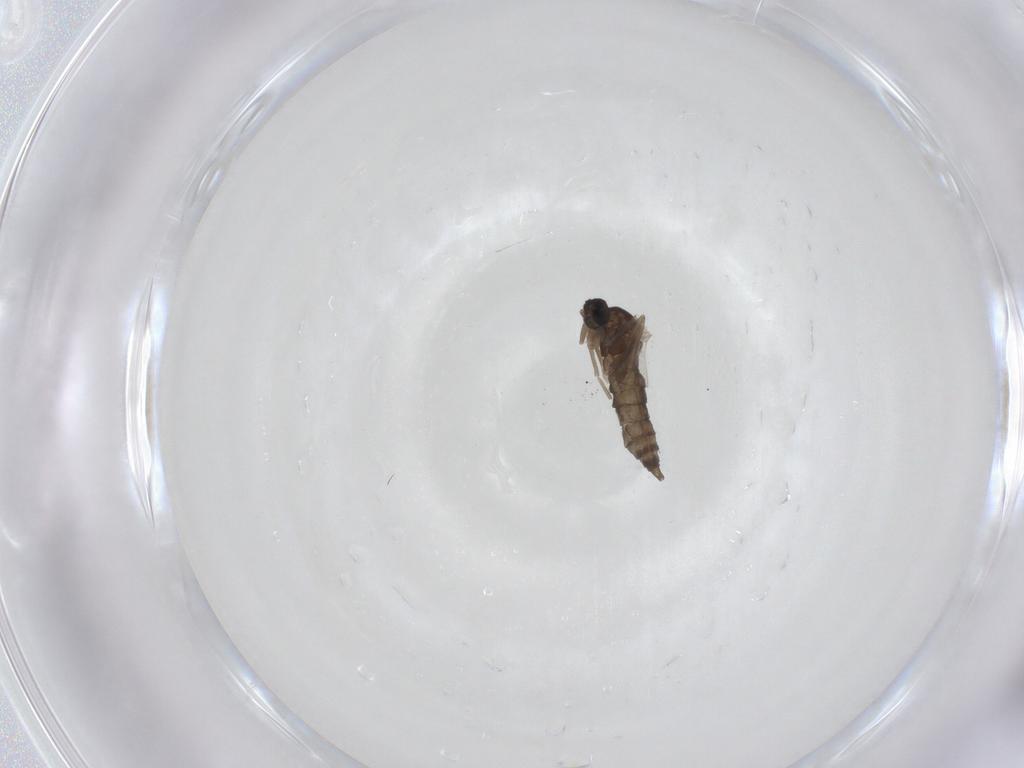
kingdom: Animalia
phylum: Arthropoda
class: Insecta
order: Diptera
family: Cecidomyiidae
